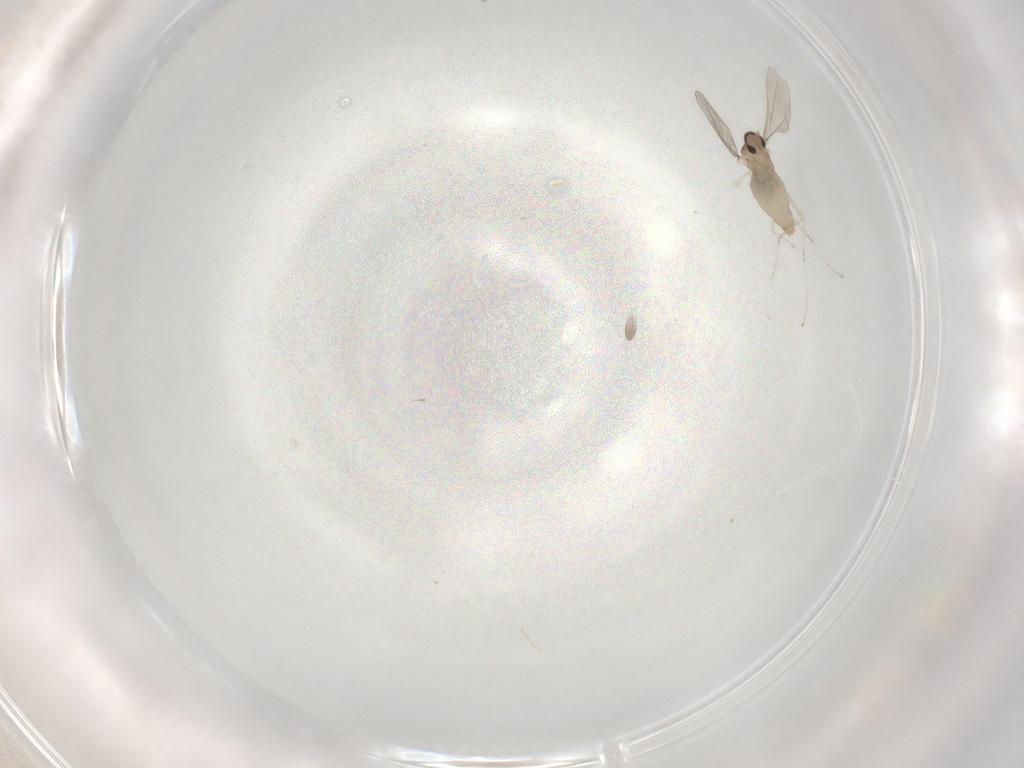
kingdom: Animalia
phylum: Arthropoda
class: Insecta
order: Diptera
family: Cecidomyiidae
